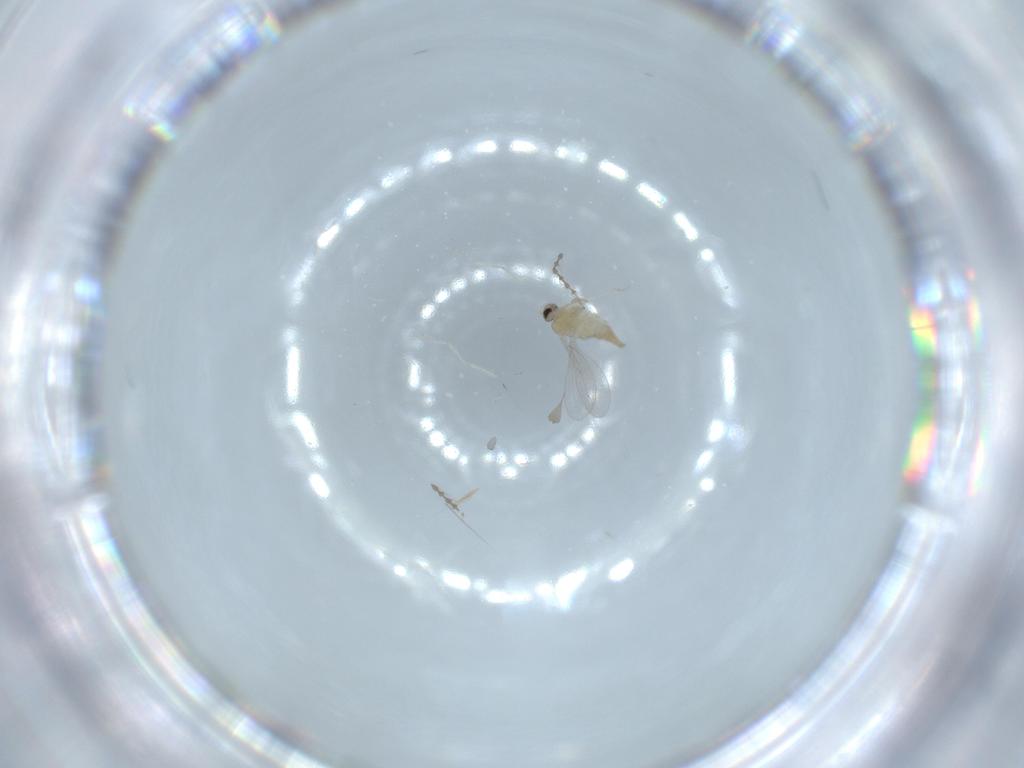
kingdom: Animalia
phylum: Arthropoda
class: Insecta
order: Diptera
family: Cecidomyiidae
